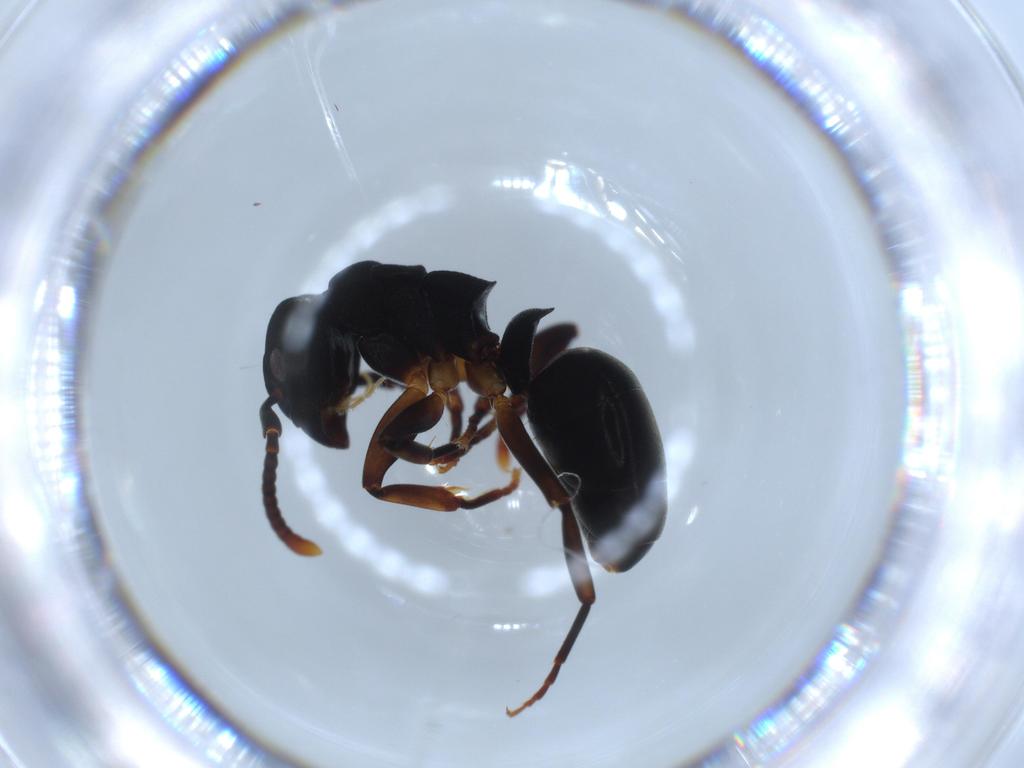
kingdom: Animalia
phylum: Arthropoda
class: Insecta
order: Hymenoptera
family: Formicidae
